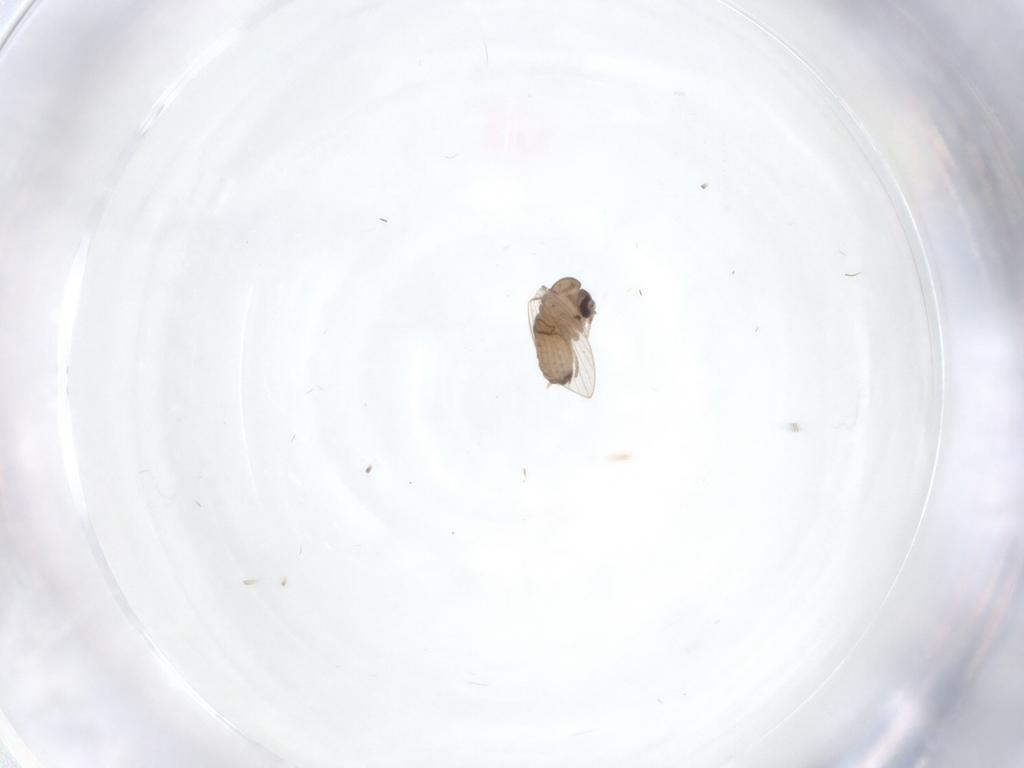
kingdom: Animalia
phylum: Arthropoda
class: Insecta
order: Diptera
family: Psychodidae
